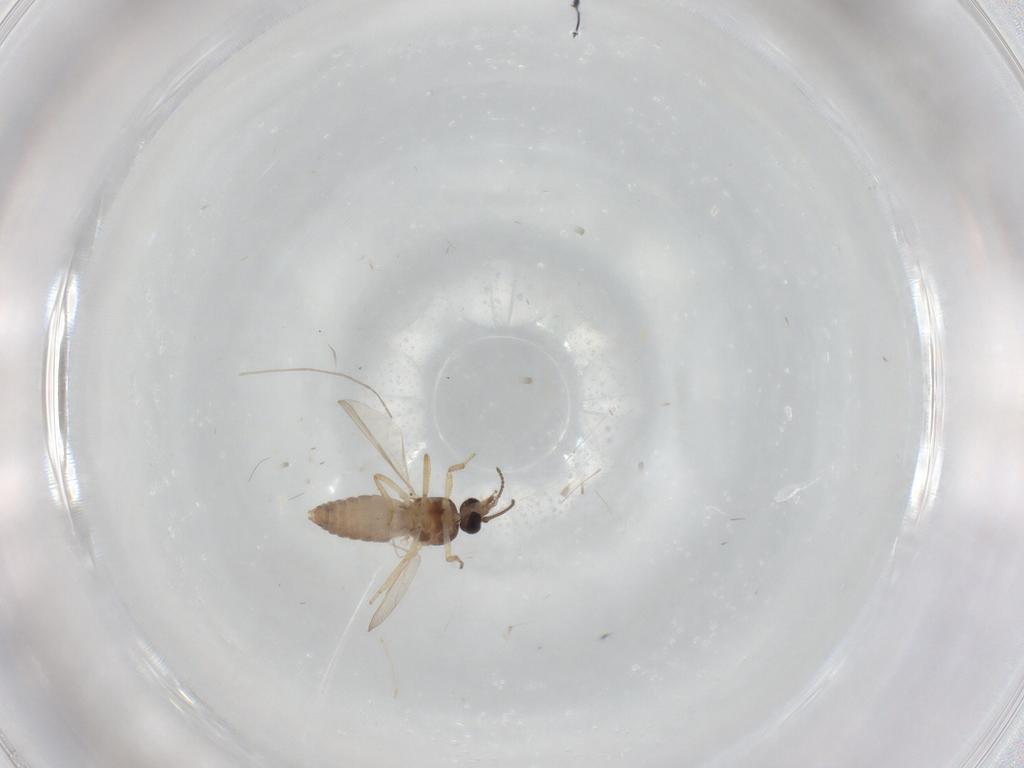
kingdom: Animalia
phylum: Arthropoda
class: Insecta
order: Diptera
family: Ceratopogonidae
